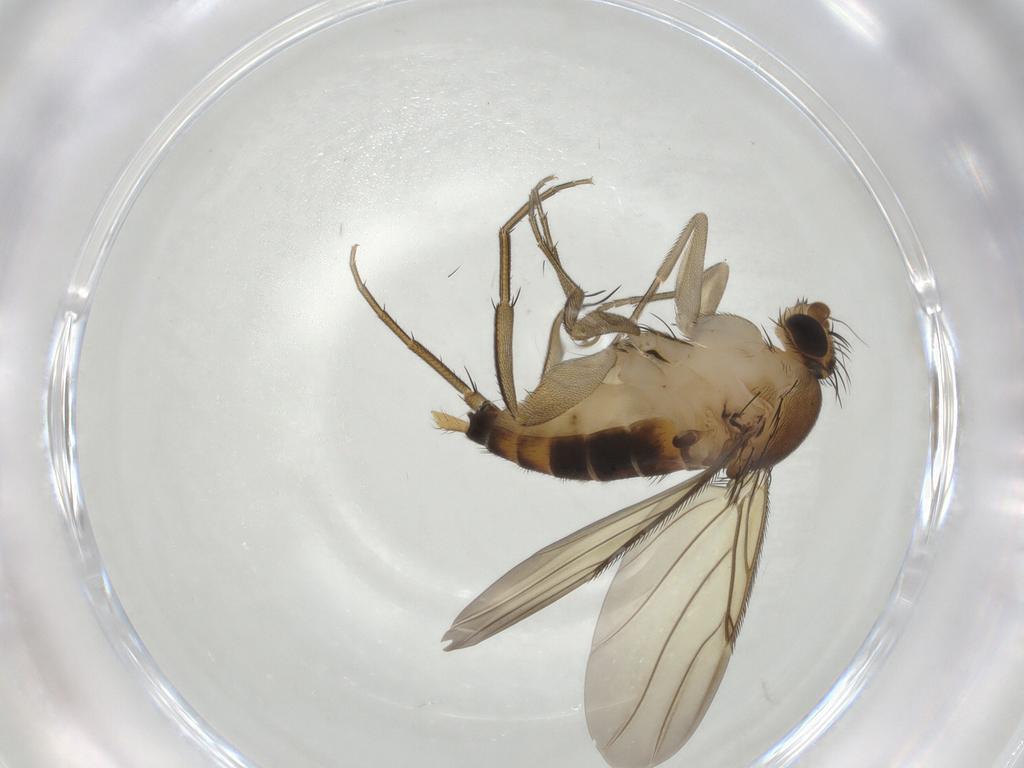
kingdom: Animalia
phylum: Arthropoda
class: Insecta
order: Diptera
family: Phoridae
